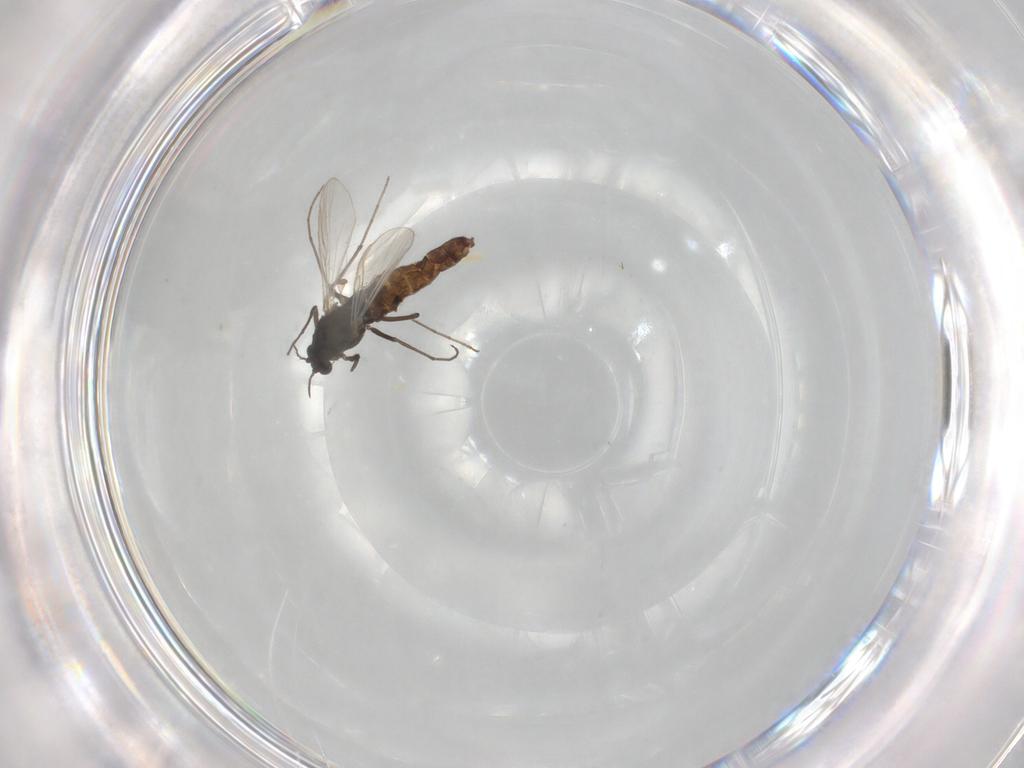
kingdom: Animalia
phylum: Arthropoda
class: Insecta
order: Diptera
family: Chironomidae
